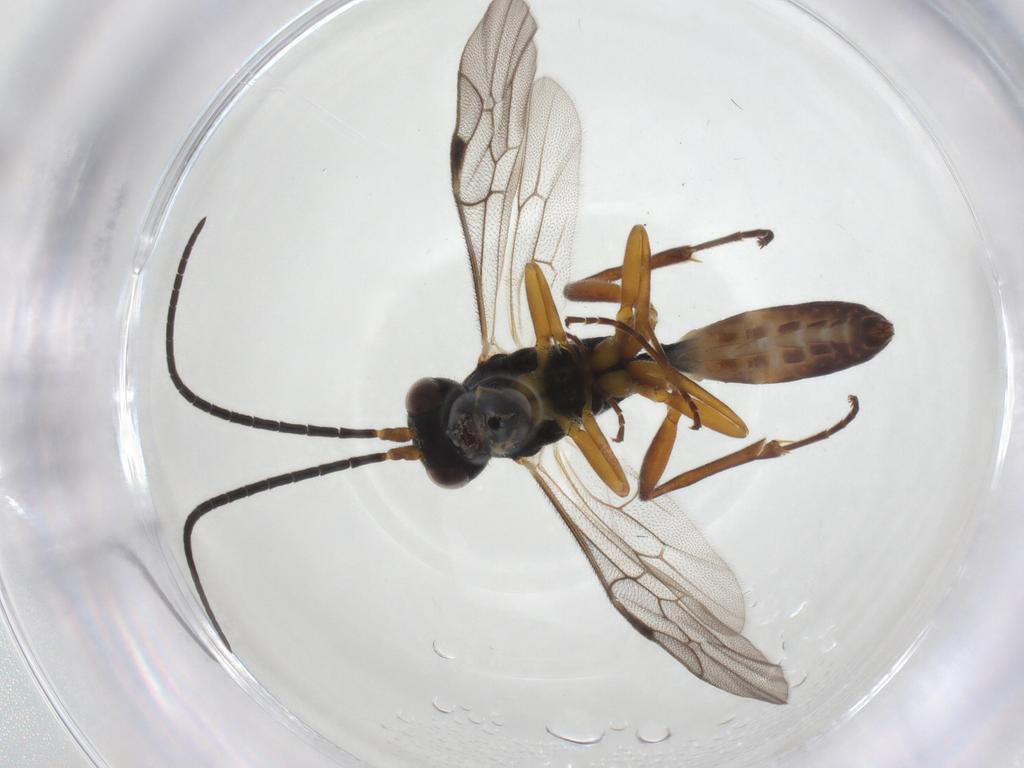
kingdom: Animalia
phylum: Arthropoda
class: Insecta
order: Hymenoptera
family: Ichneumonidae
